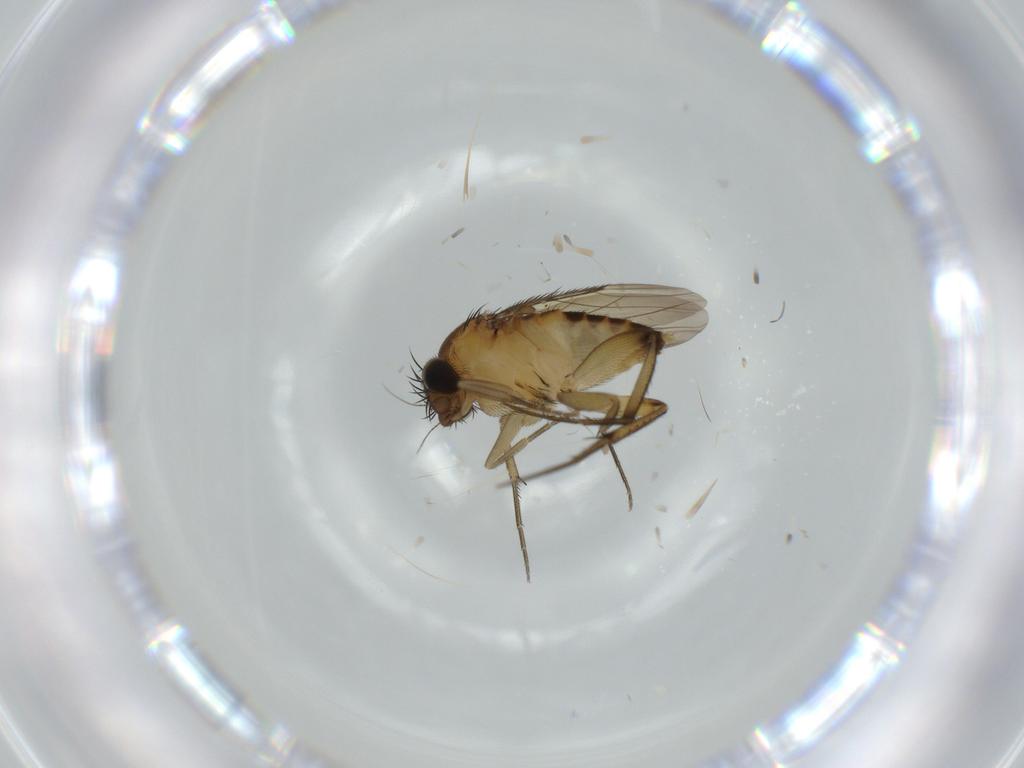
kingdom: Animalia
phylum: Arthropoda
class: Insecta
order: Diptera
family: Phoridae
